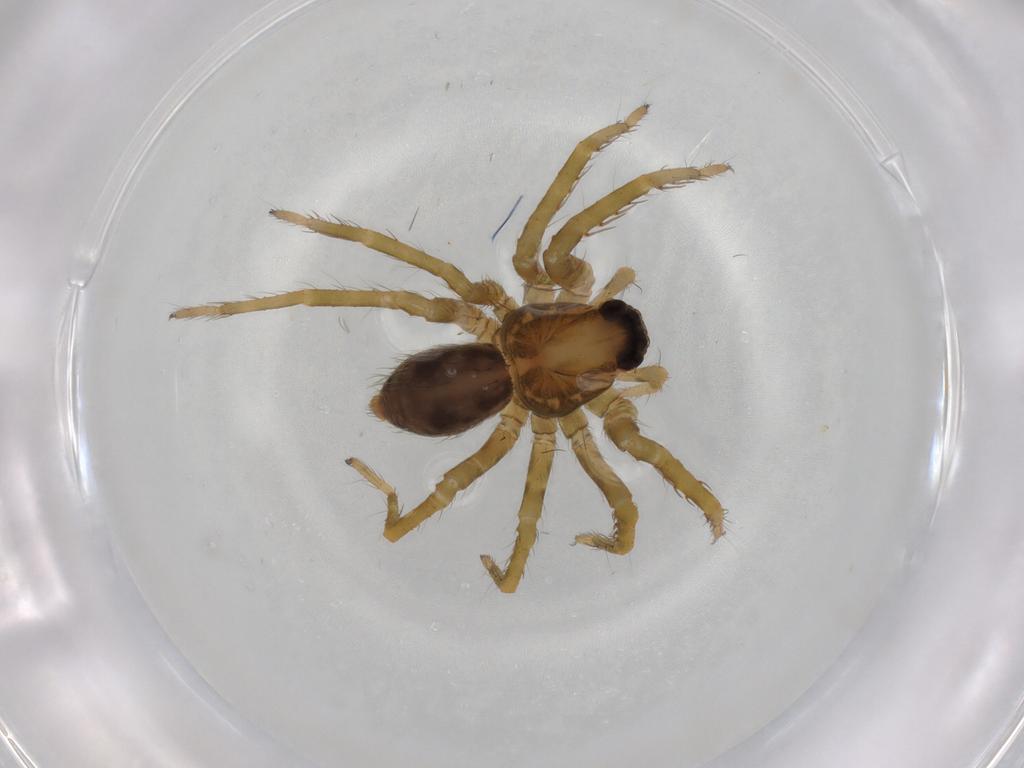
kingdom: Animalia
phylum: Arthropoda
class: Arachnida
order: Araneae
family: Trechaleidae
